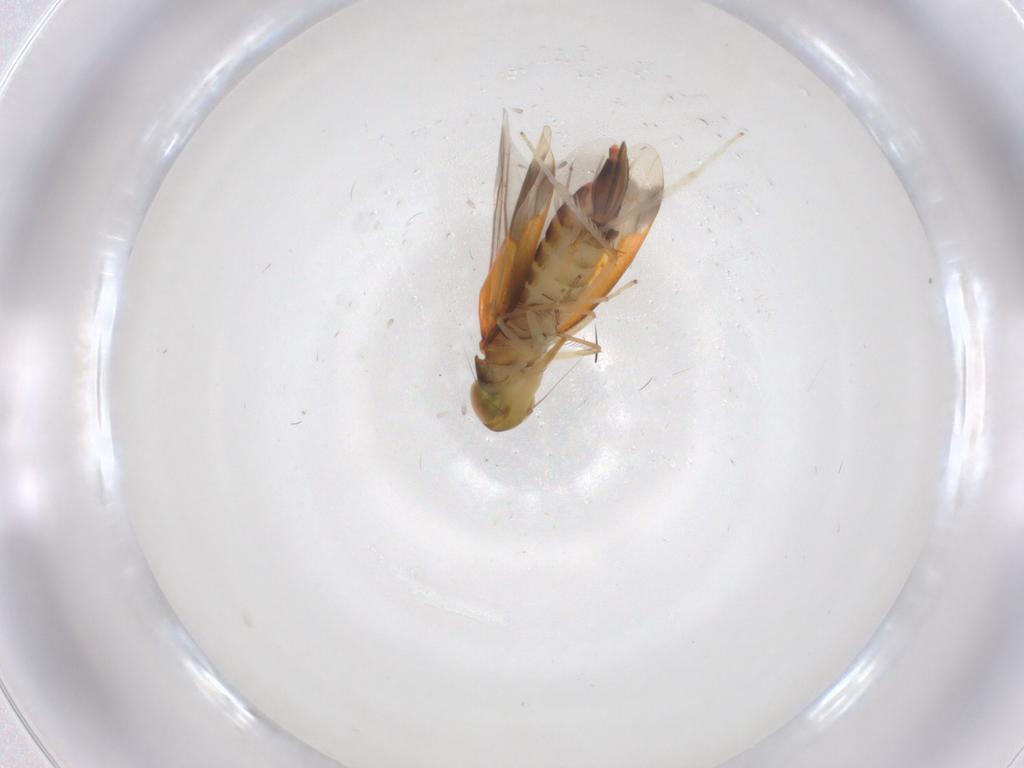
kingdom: Animalia
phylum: Arthropoda
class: Insecta
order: Hemiptera
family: Cicadellidae
